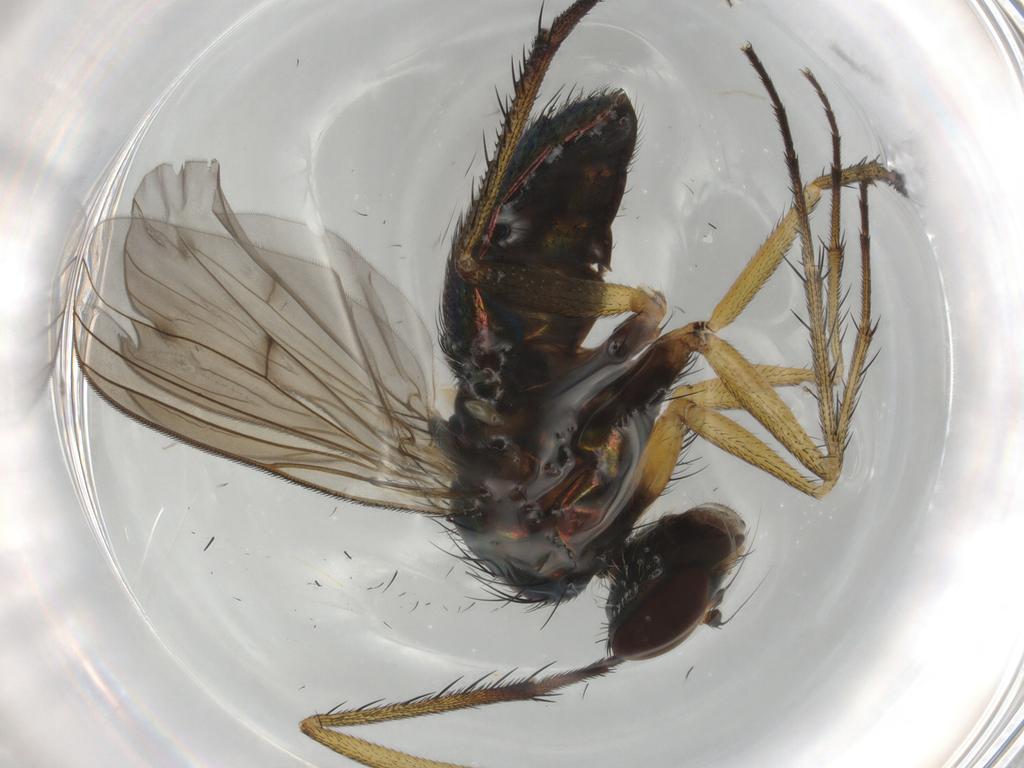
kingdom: Animalia
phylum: Arthropoda
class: Insecta
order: Diptera
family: Dolichopodidae
